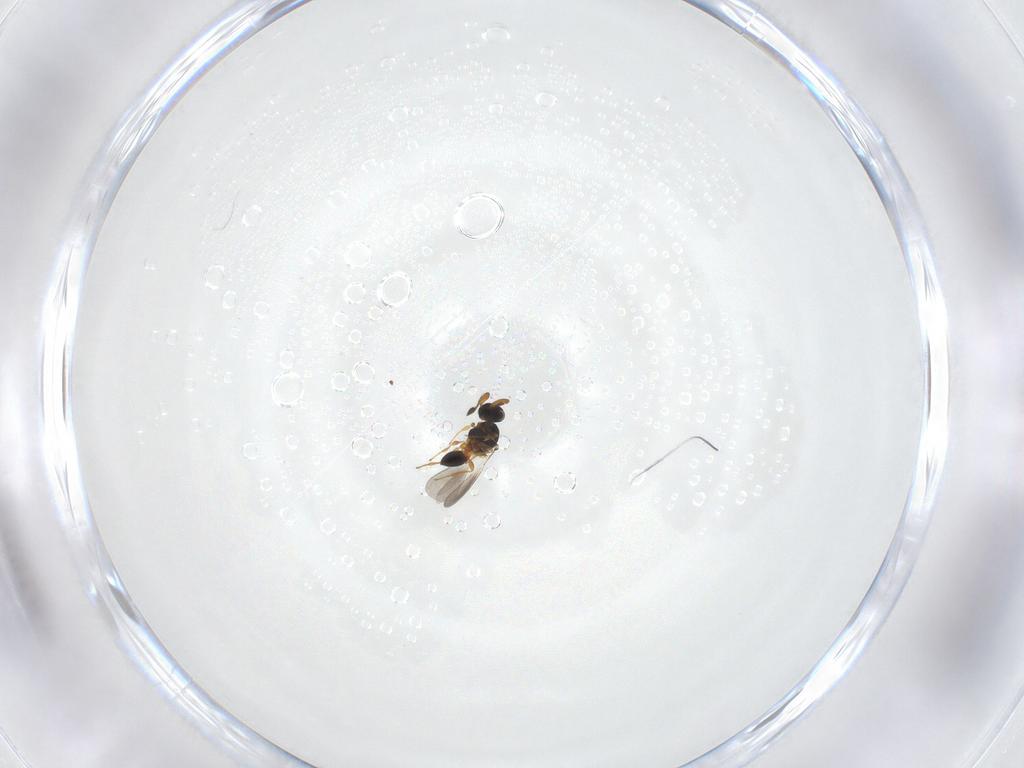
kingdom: Animalia
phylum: Arthropoda
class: Insecta
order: Hymenoptera
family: Platygastridae
